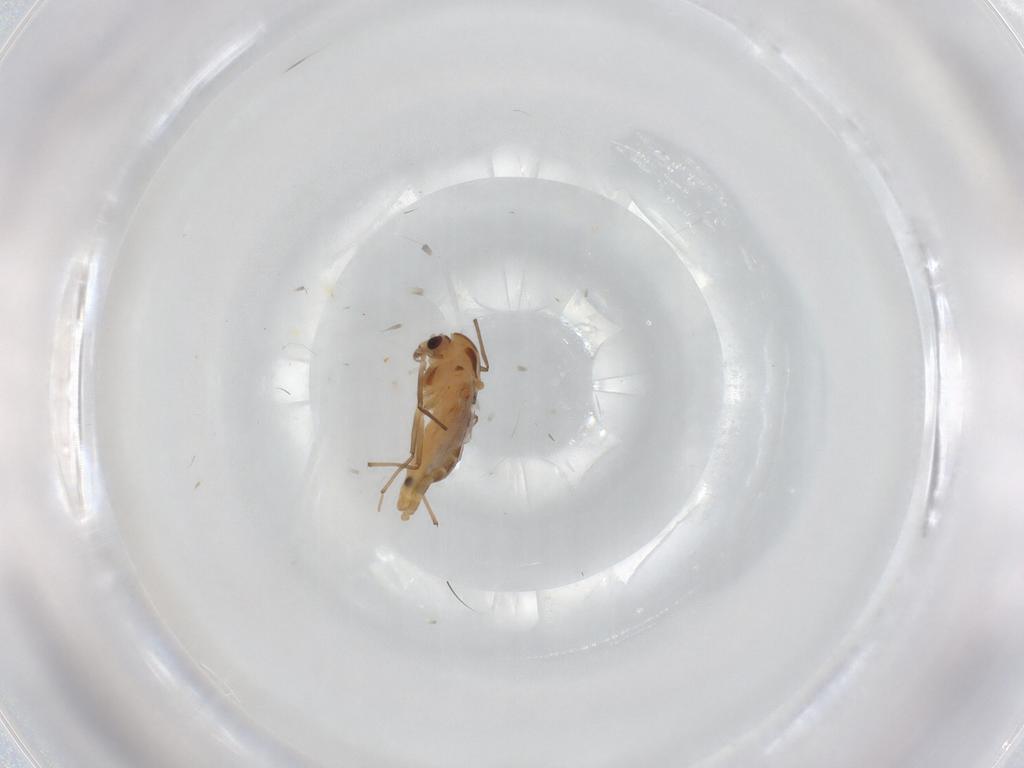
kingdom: Animalia
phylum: Arthropoda
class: Insecta
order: Diptera
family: Chironomidae
